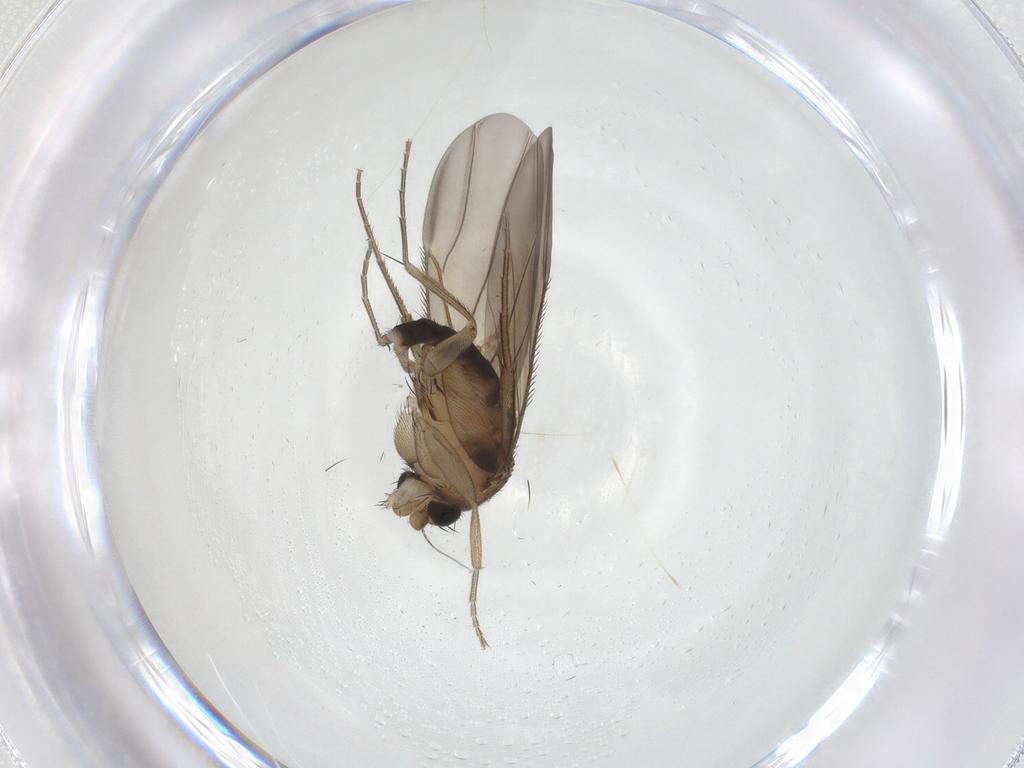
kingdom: Animalia
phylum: Arthropoda
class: Insecta
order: Diptera
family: Phoridae
